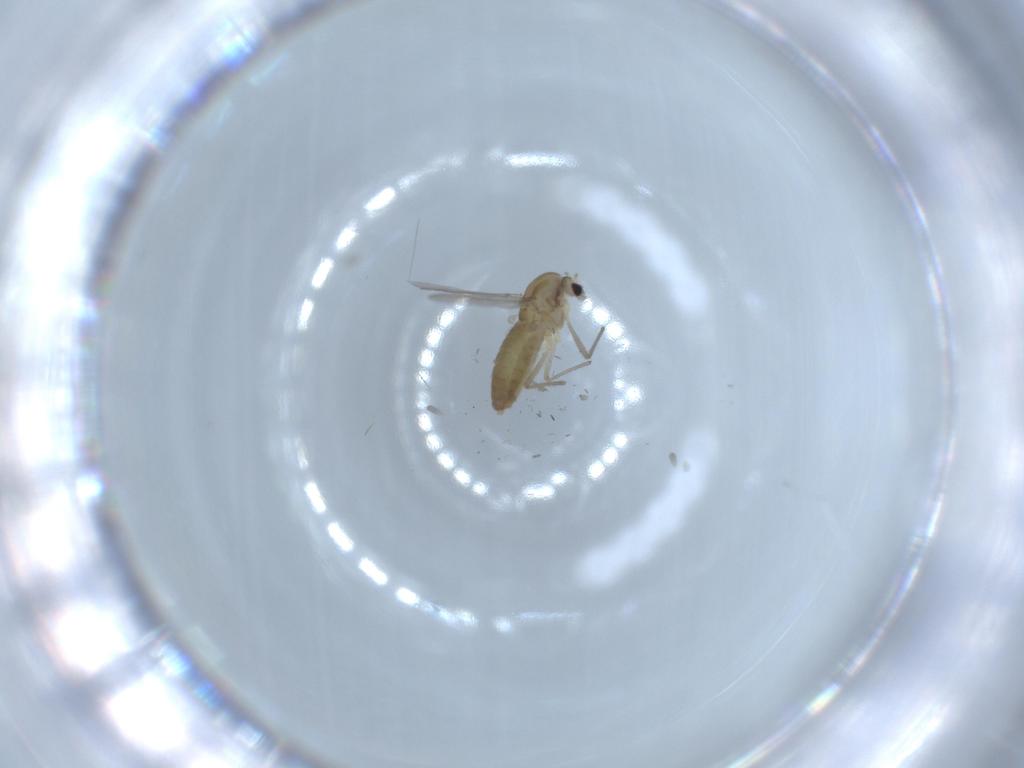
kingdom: Animalia
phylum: Arthropoda
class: Insecta
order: Diptera
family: Chironomidae
